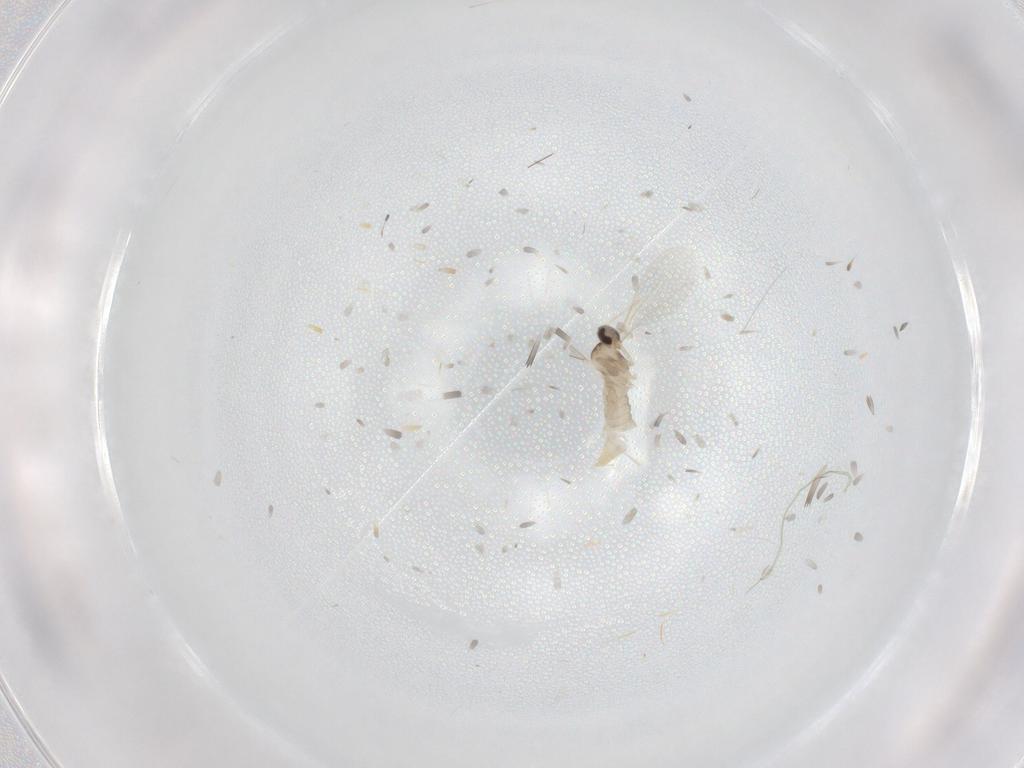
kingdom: Animalia
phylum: Arthropoda
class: Insecta
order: Diptera
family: Cecidomyiidae
